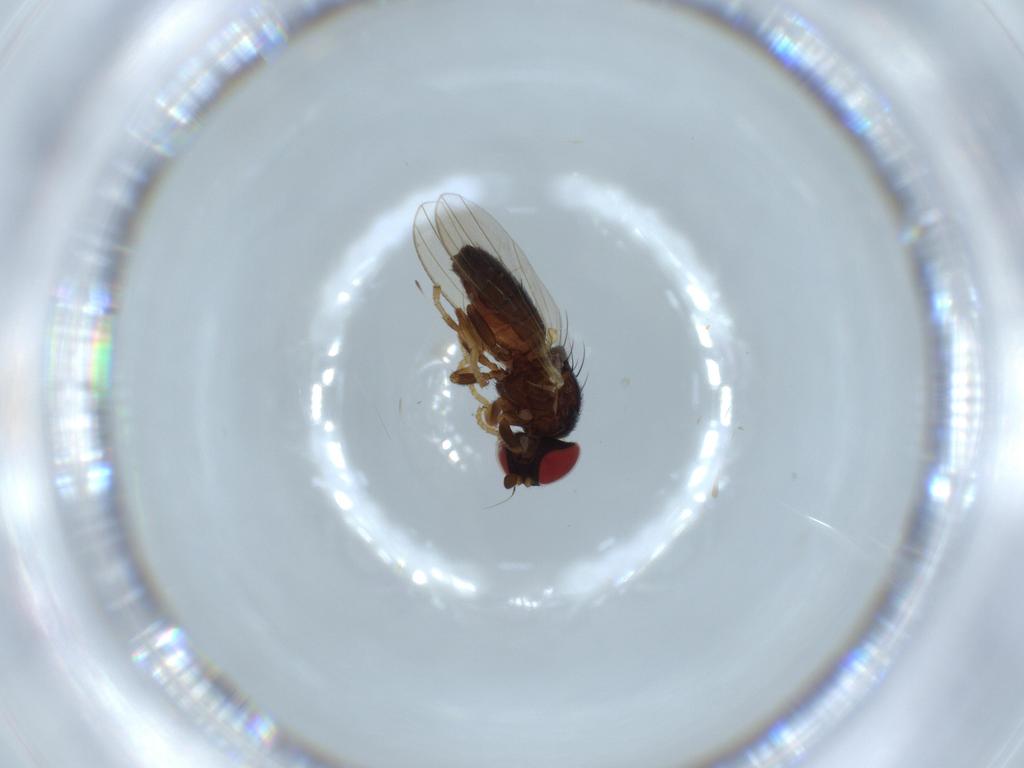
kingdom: Animalia
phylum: Arthropoda
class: Insecta
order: Diptera
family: Chamaemyiidae
